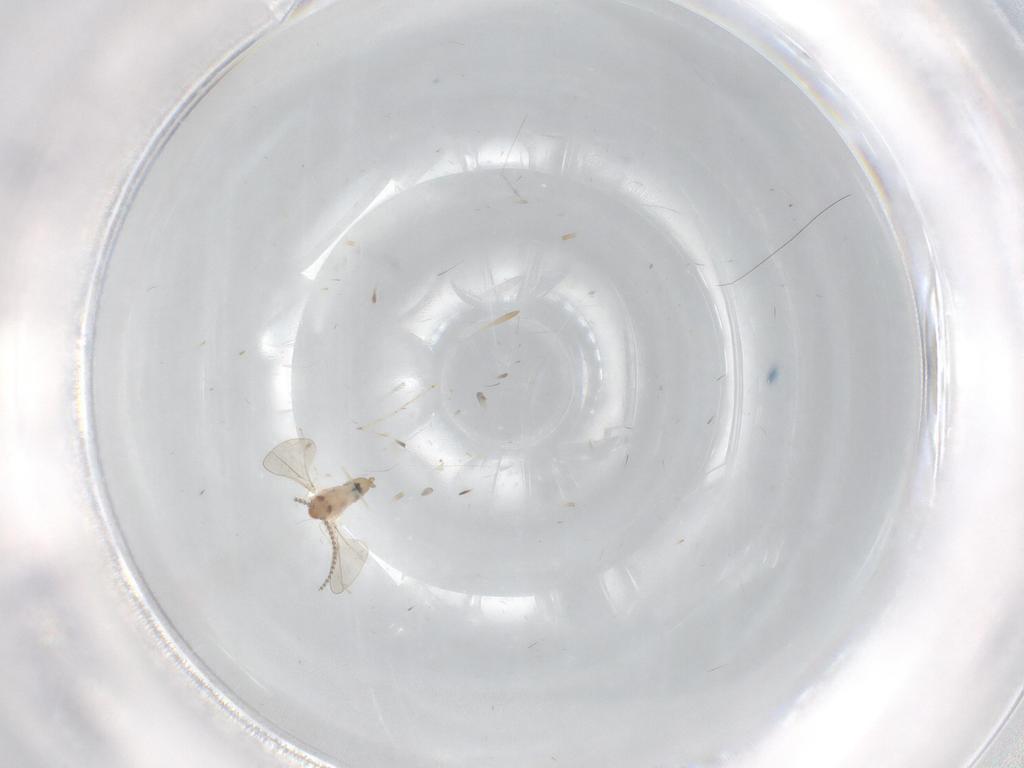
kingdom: Animalia
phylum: Arthropoda
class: Insecta
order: Diptera
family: Cecidomyiidae
